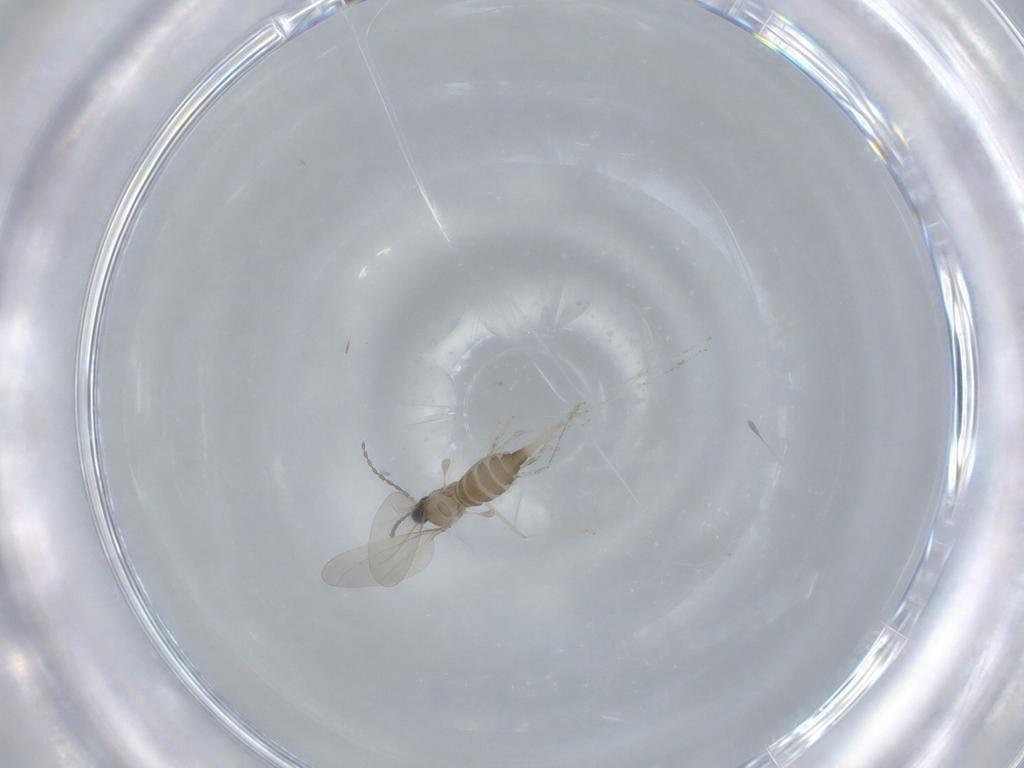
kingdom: Animalia
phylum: Arthropoda
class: Insecta
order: Diptera
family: Cecidomyiidae
